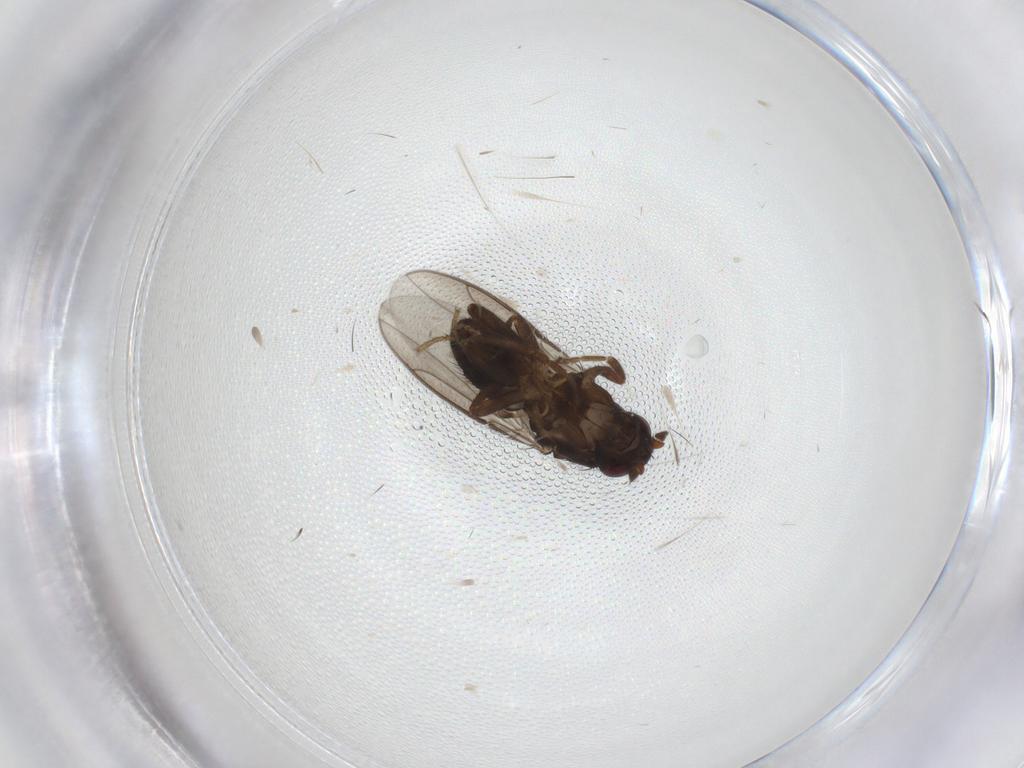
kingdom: Animalia
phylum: Arthropoda
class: Insecta
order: Diptera
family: Sphaeroceridae
